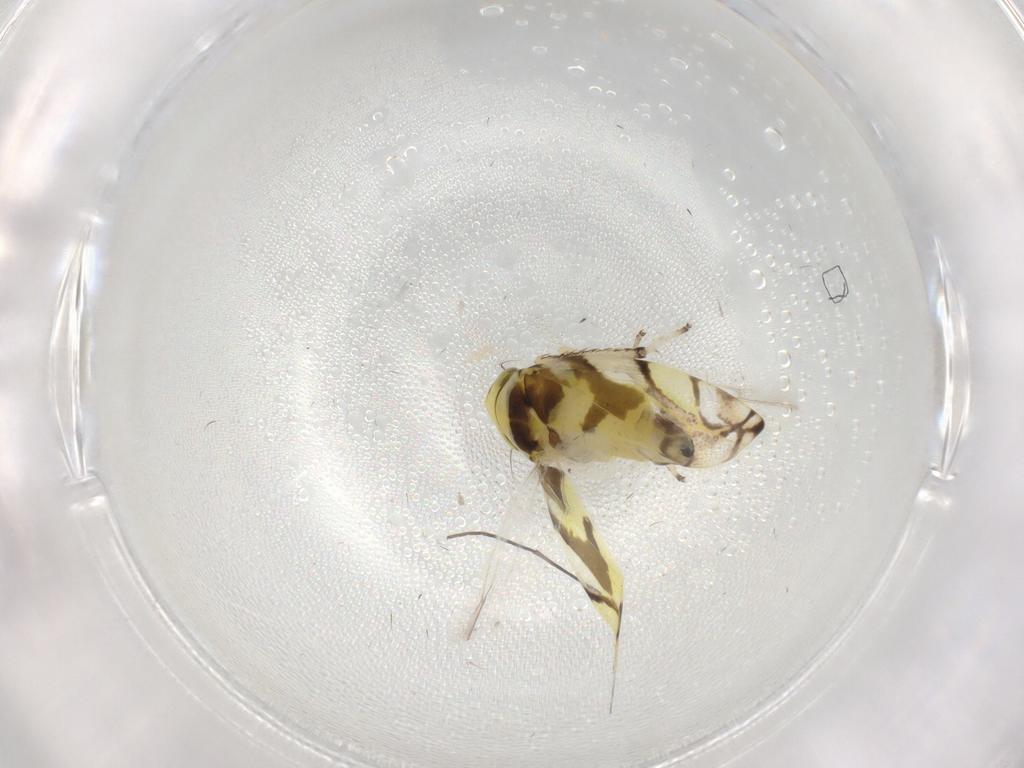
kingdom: Animalia
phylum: Arthropoda
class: Insecta
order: Hemiptera
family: Cicadellidae
